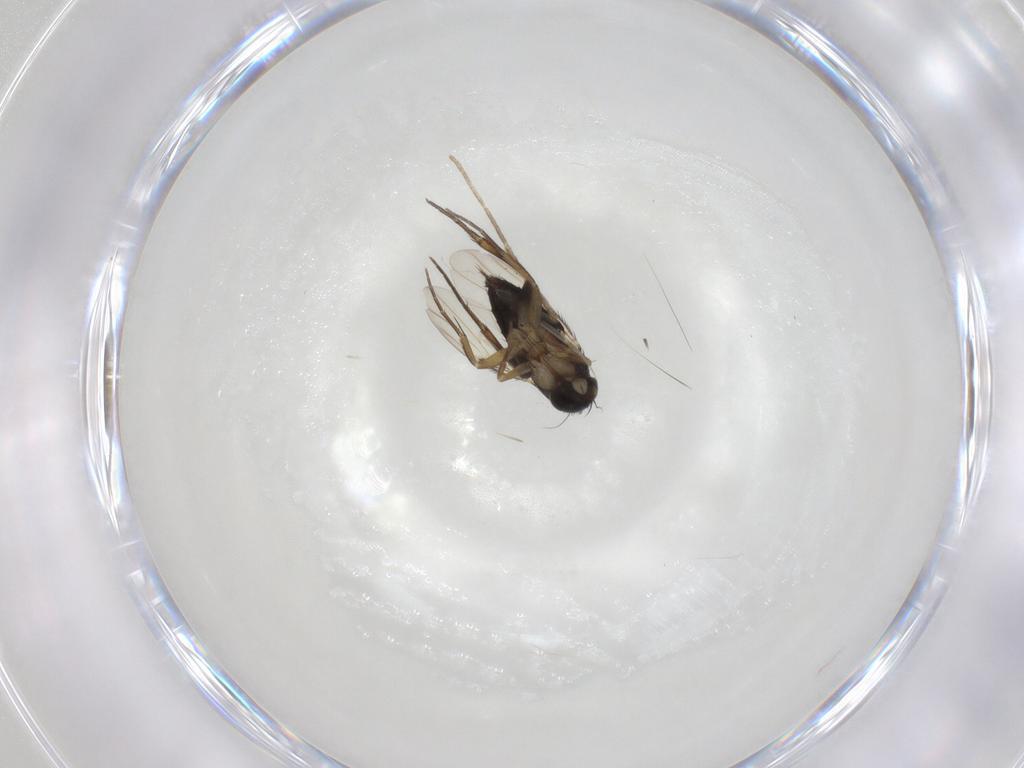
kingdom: Animalia
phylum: Arthropoda
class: Insecta
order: Diptera
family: Phoridae
